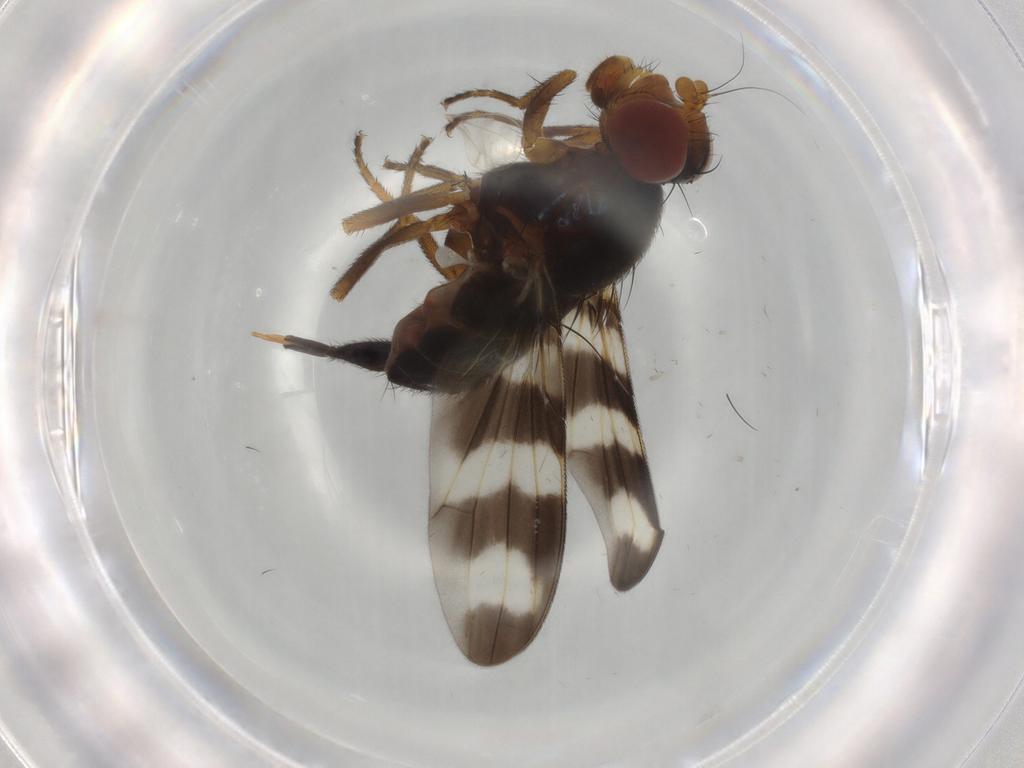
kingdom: Animalia
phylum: Arthropoda
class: Insecta
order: Diptera
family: Ulidiidae
